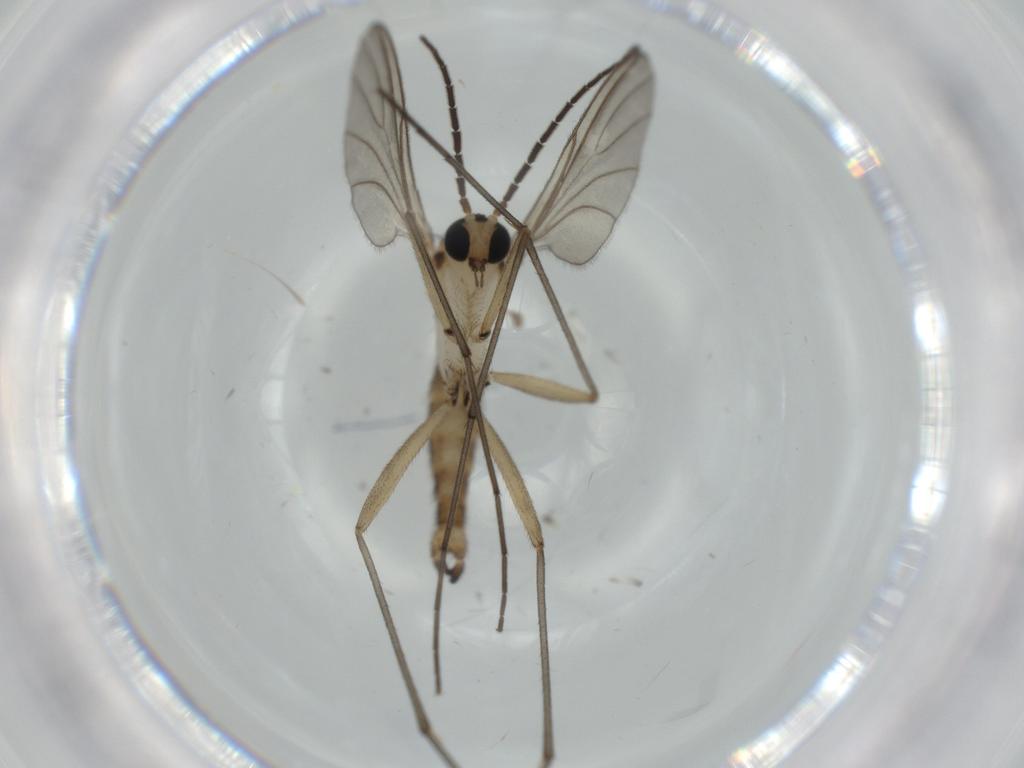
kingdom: Animalia
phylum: Arthropoda
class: Insecta
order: Diptera
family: Sciaridae
